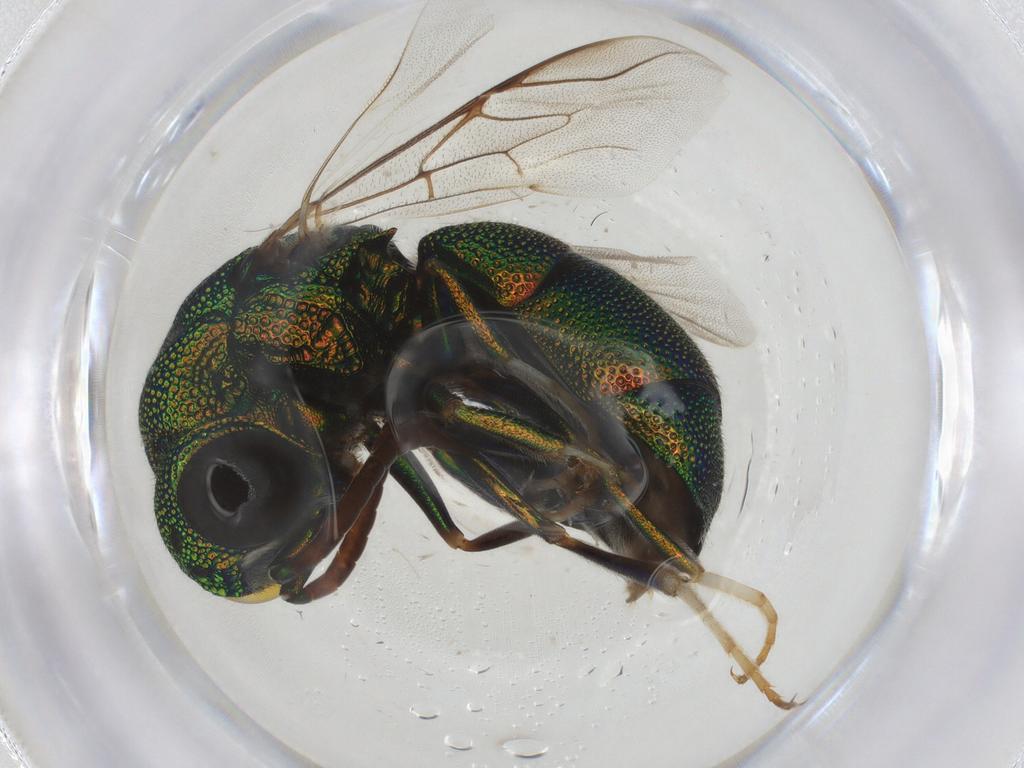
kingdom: Animalia
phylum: Arthropoda
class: Insecta
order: Hymenoptera
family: Chrysididae
